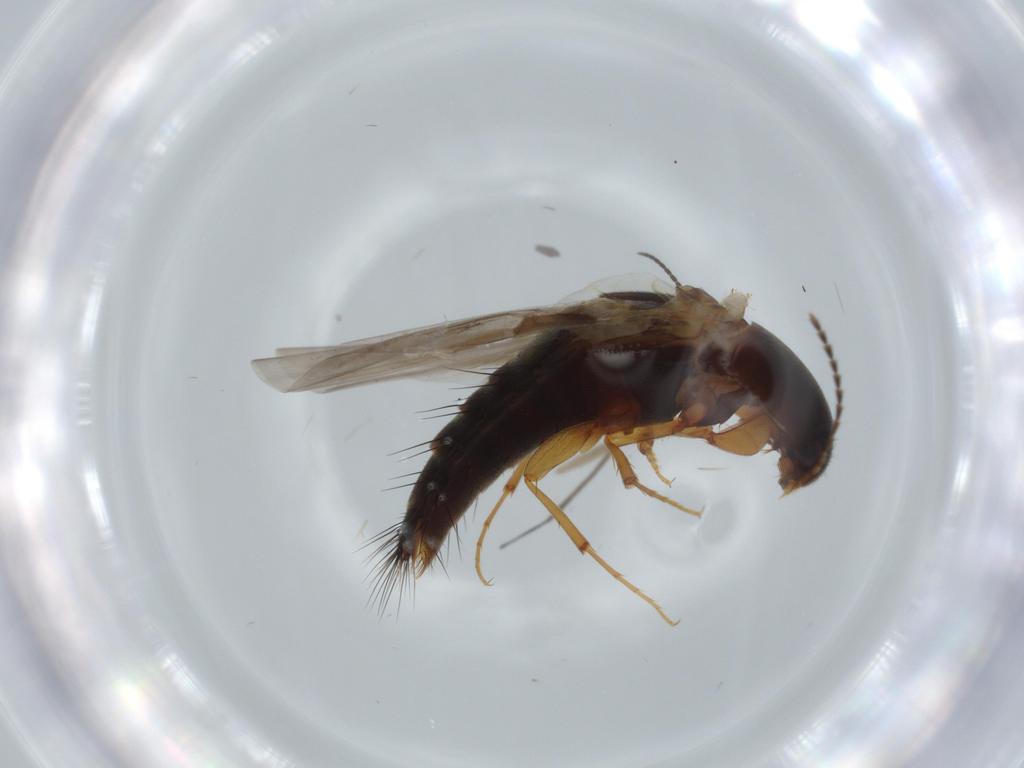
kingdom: Animalia
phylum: Arthropoda
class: Insecta
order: Coleoptera
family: Staphylinidae
